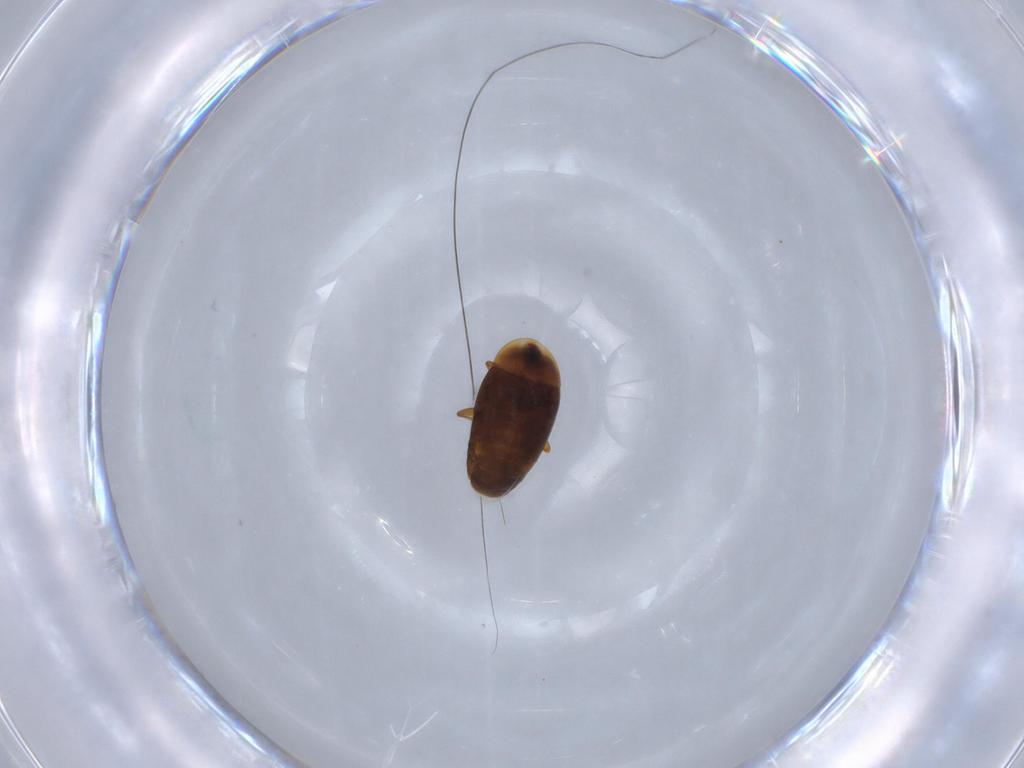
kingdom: Animalia
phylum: Arthropoda
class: Insecta
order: Coleoptera
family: Corylophidae
